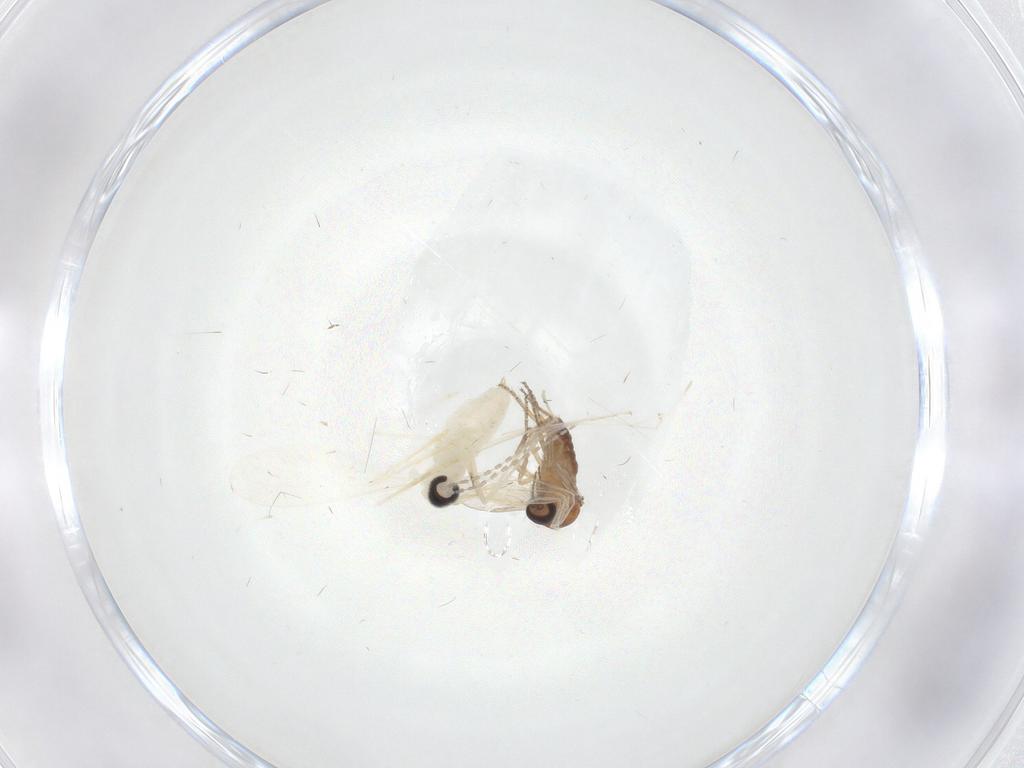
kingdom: Animalia
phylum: Arthropoda
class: Insecta
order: Diptera
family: Cecidomyiidae
